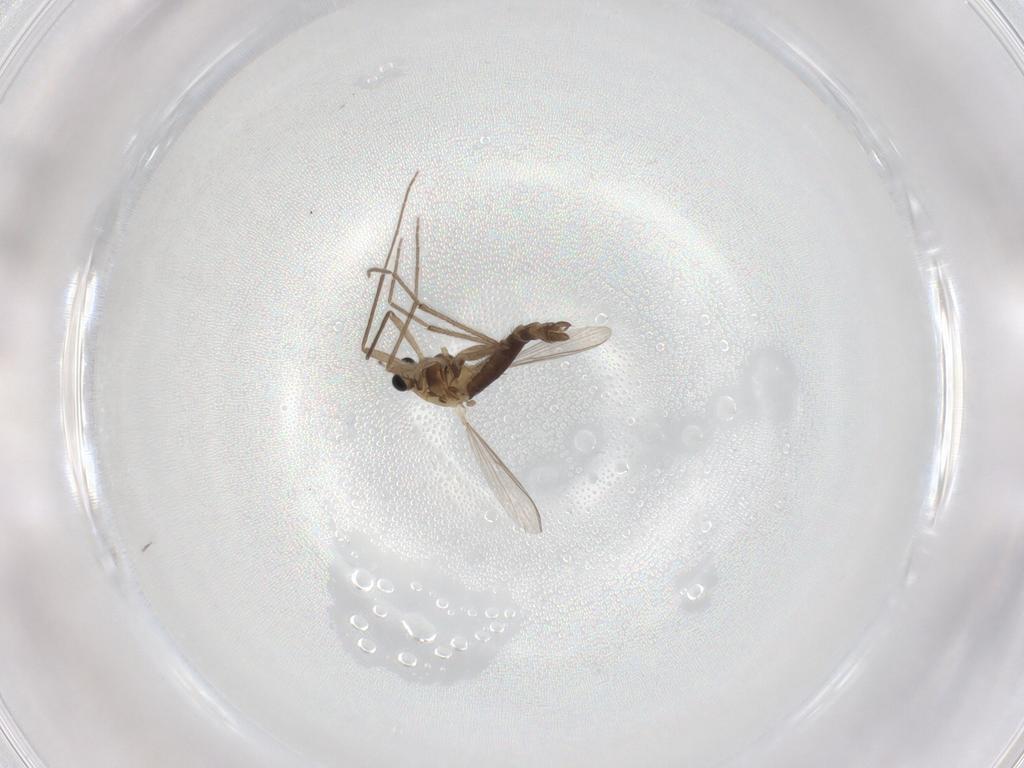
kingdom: Animalia
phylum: Arthropoda
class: Insecta
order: Diptera
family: Chironomidae
